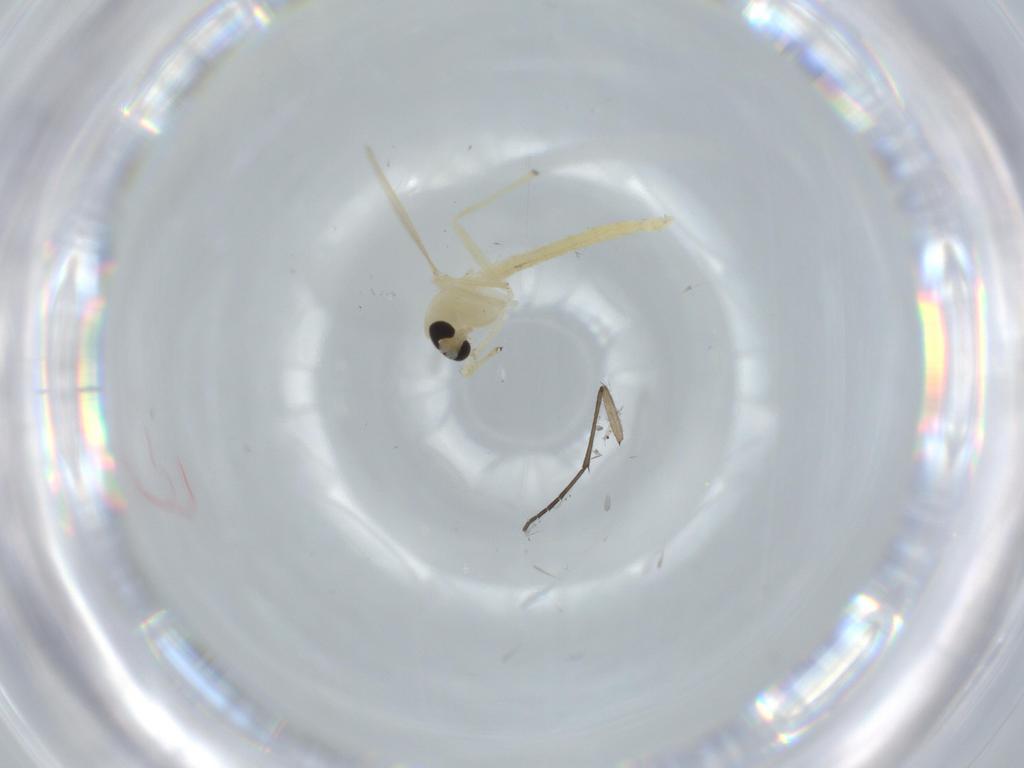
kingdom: Animalia
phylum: Arthropoda
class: Insecta
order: Diptera
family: Chironomidae
